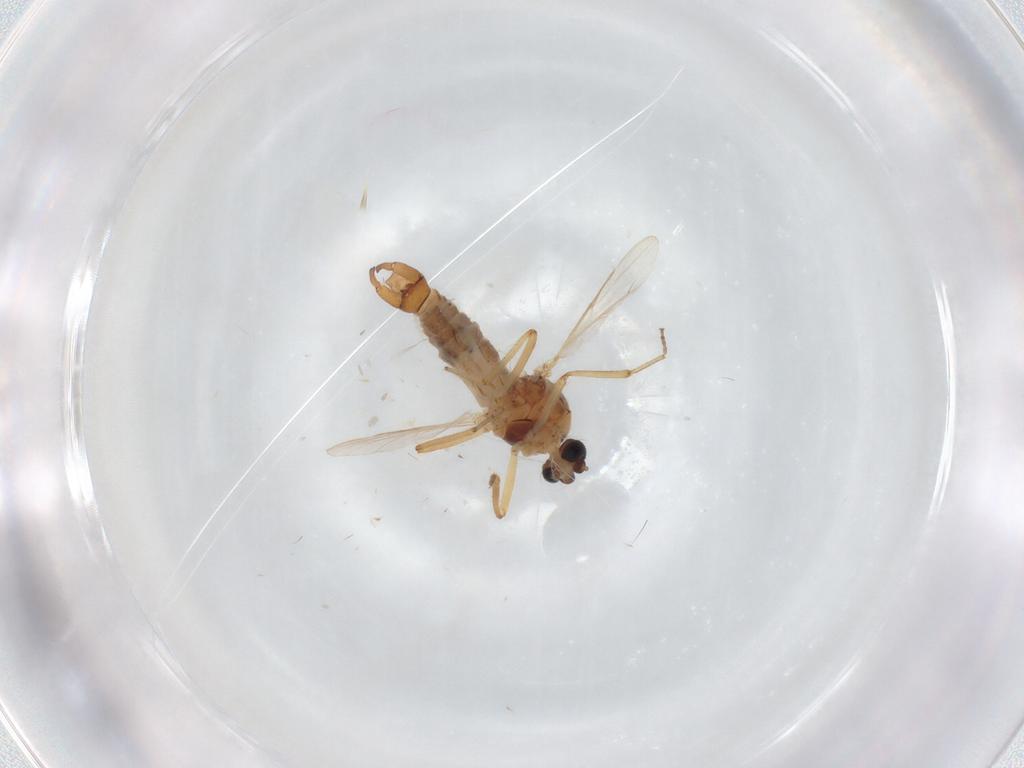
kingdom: Animalia
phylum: Arthropoda
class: Insecta
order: Diptera
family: Ceratopogonidae
